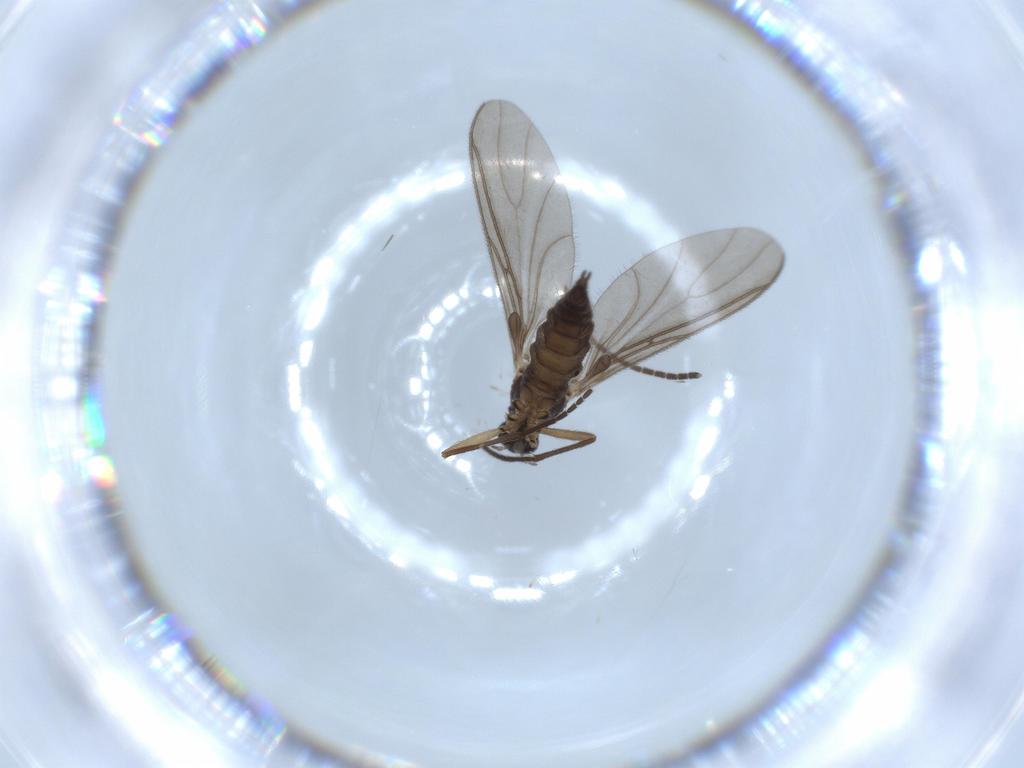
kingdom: Animalia
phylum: Arthropoda
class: Insecta
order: Diptera
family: Sciaridae
